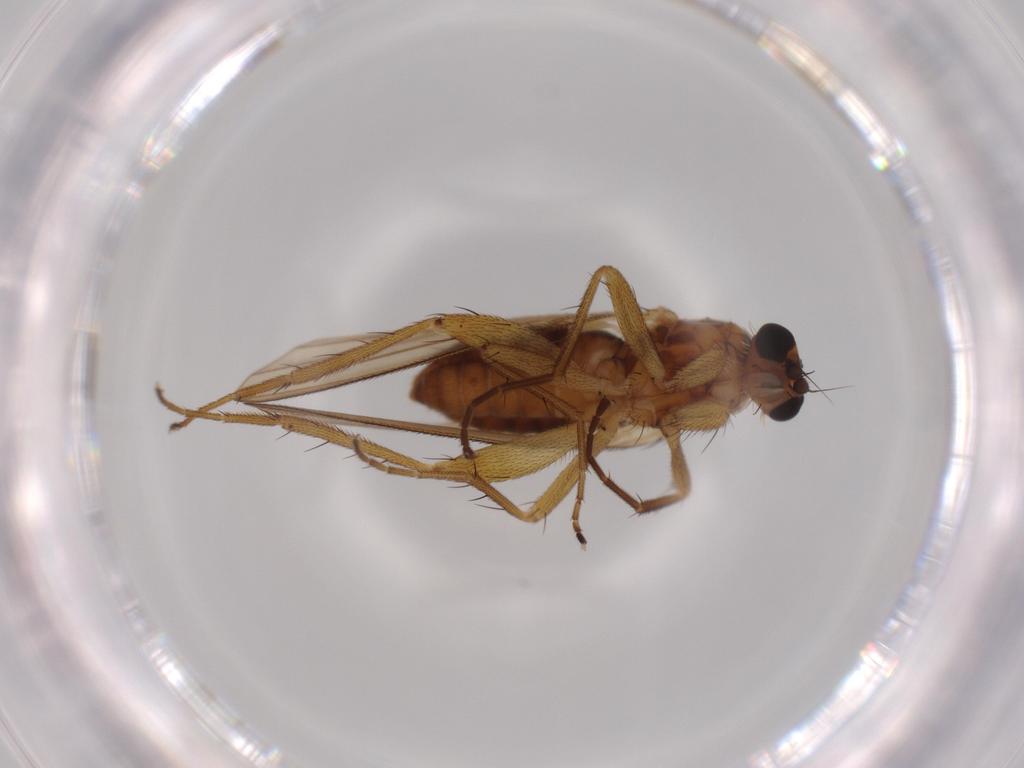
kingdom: Animalia
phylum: Arthropoda
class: Insecta
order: Diptera
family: Lonchopteridae
